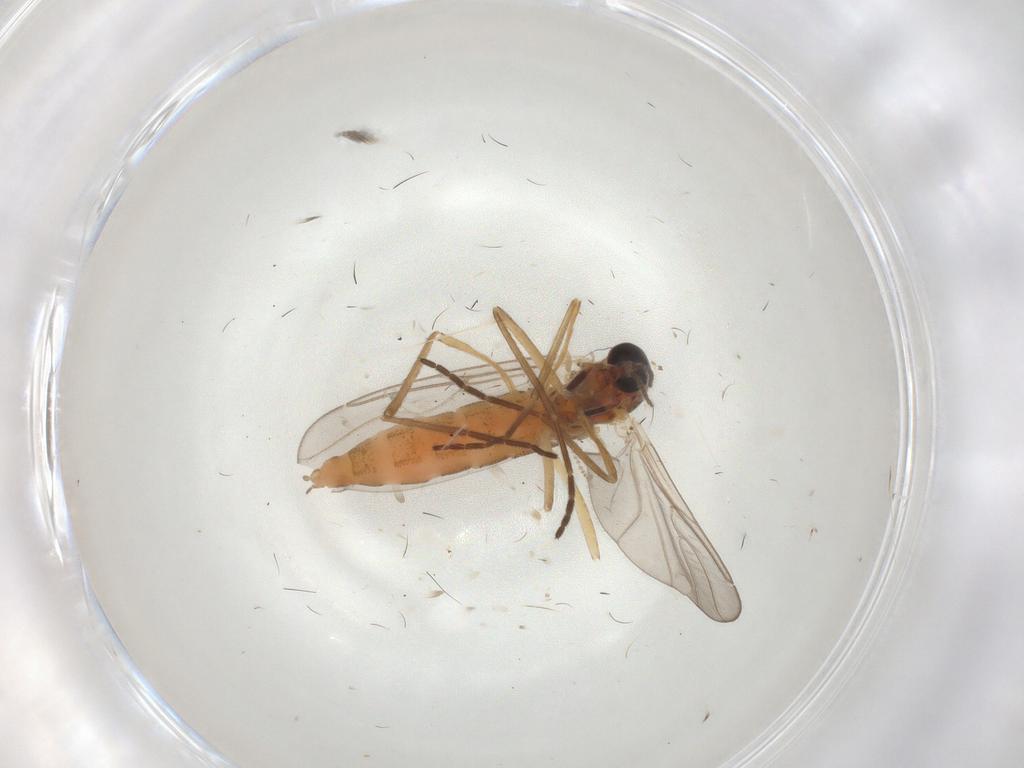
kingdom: Animalia
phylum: Arthropoda
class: Insecta
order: Diptera
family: Cecidomyiidae
